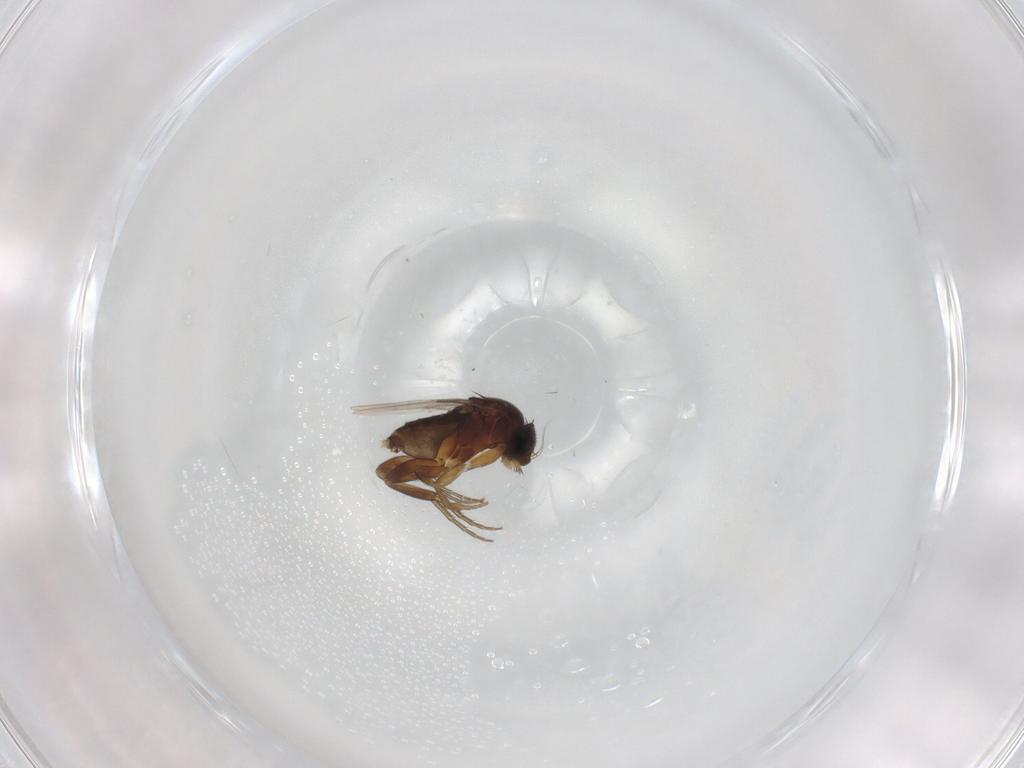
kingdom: Animalia
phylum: Arthropoda
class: Insecta
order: Diptera
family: Phoridae
